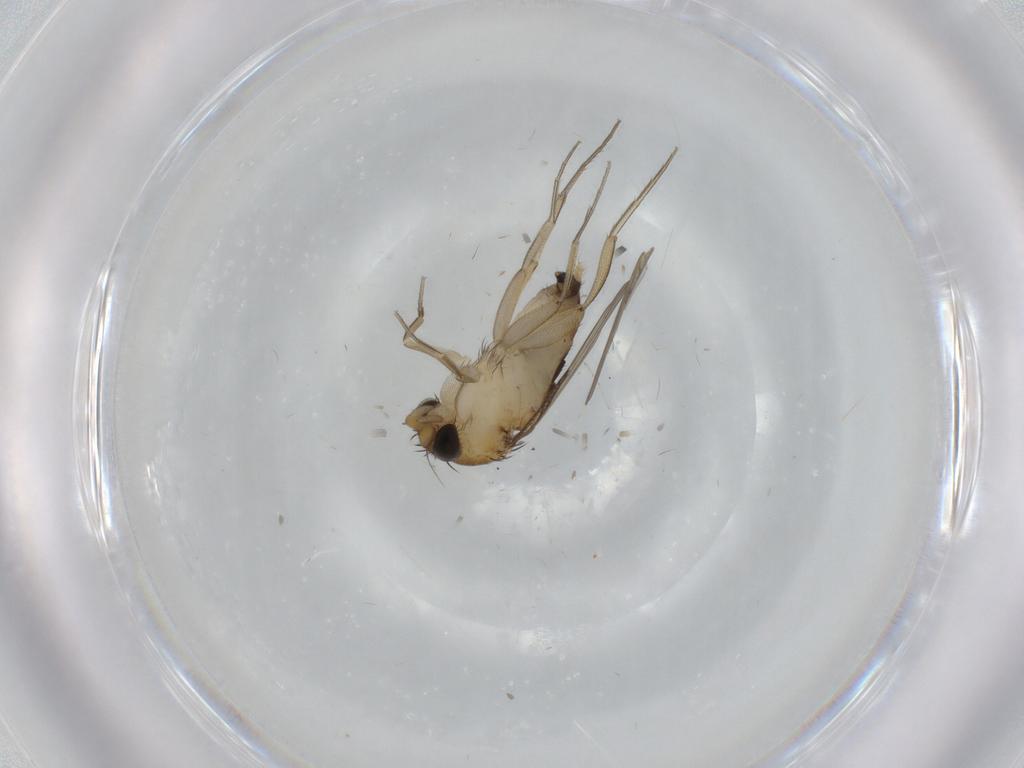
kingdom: Animalia
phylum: Arthropoda
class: Insecta
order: Diptera
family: Phoridae
